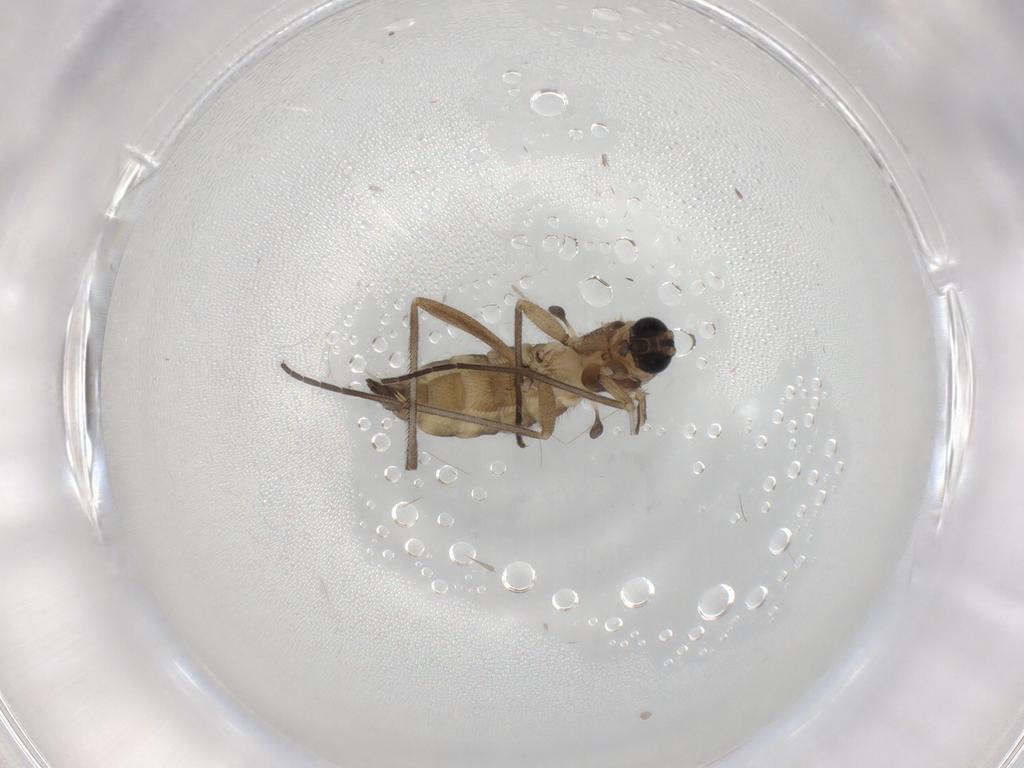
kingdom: Animalia
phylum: Arthropoda
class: Insecta
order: Diptera
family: Sciaridae
